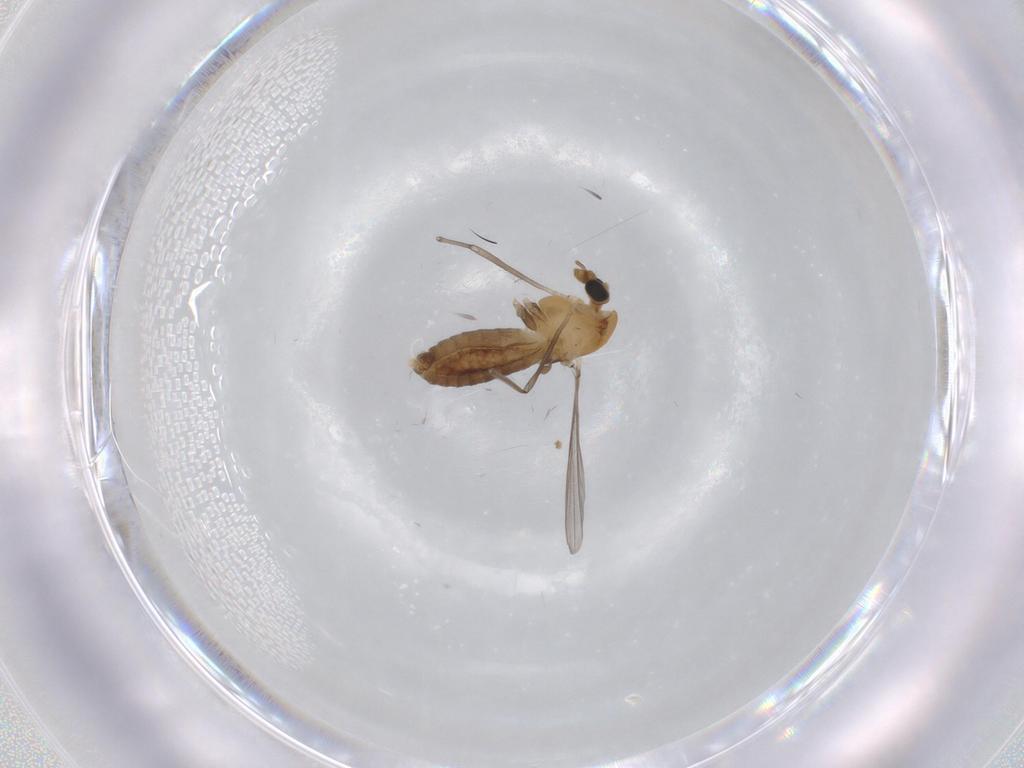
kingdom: Animalia
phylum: Arthropoda
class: Insecta
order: Diptera
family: Chironomidae
